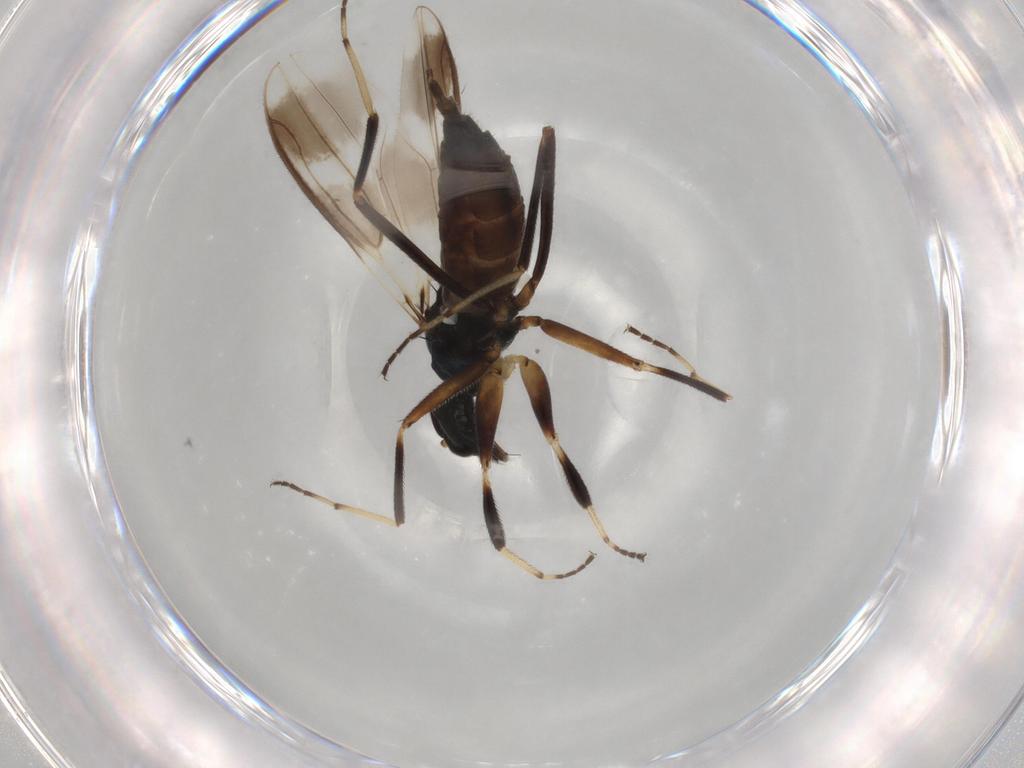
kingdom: Animalia
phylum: Arthropoda
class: Insecta
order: Diptera
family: Hybotidae
